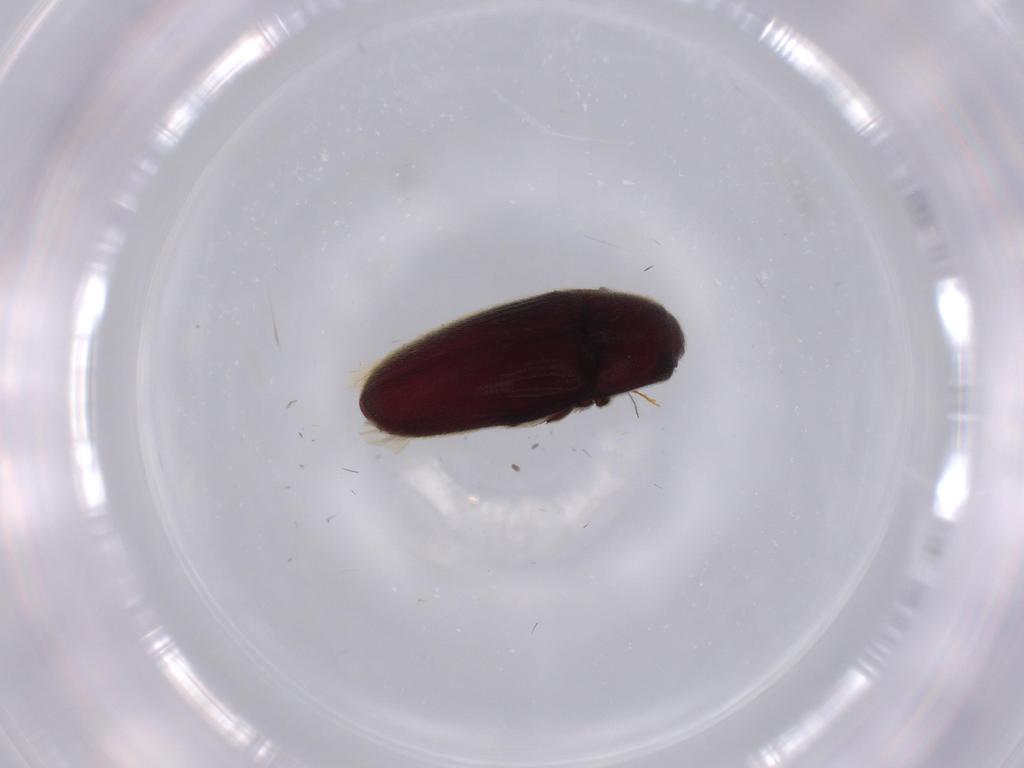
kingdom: Animalia
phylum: Arthropoda
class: Insecta
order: Coleoptera
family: Throscidae
